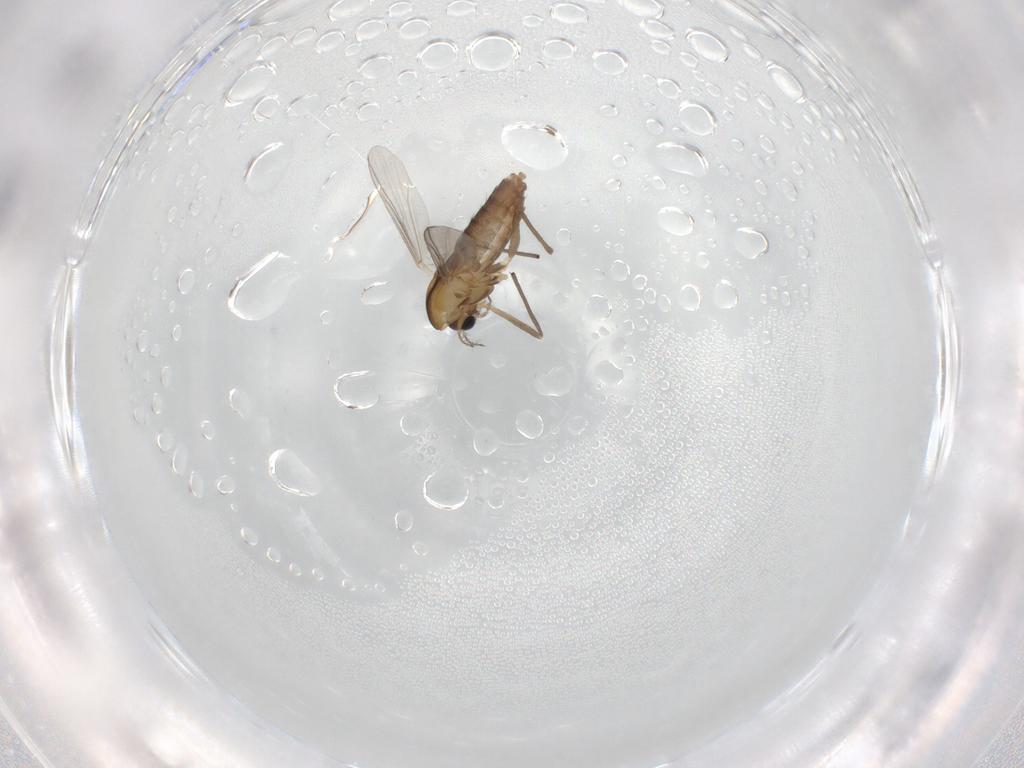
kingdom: Animalia
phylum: Arthropoda
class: Insecta
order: Diptera
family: Chironomidae
